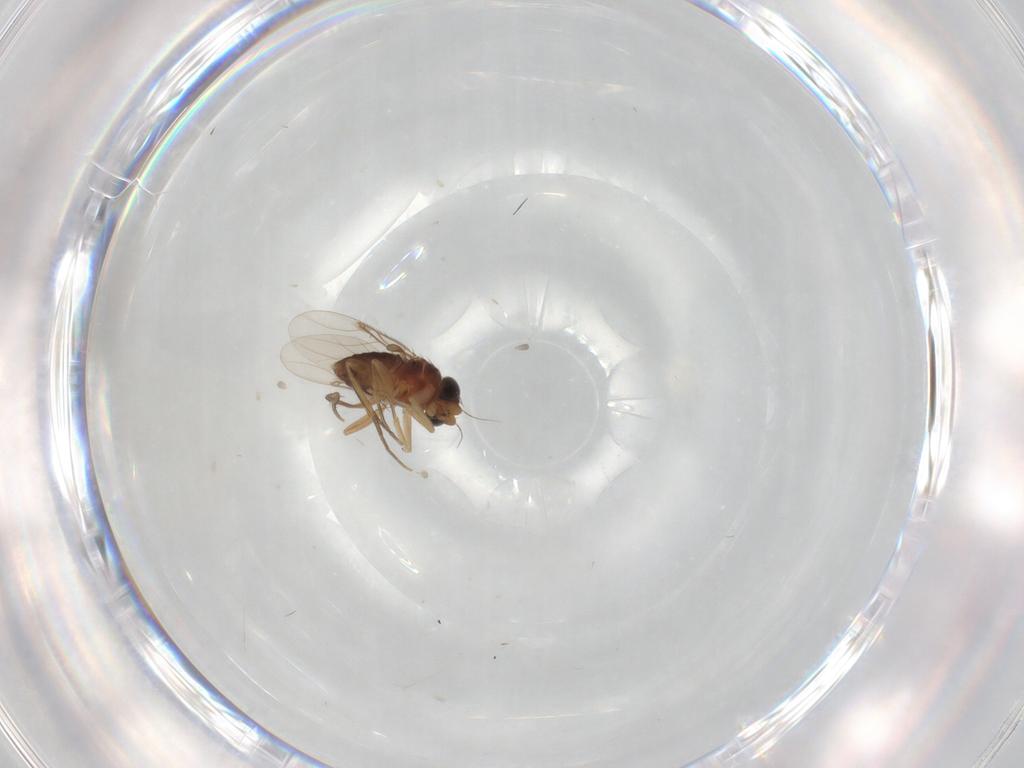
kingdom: Animalia
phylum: Arthropoda
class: Insecta
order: Diptera
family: Phoridae
